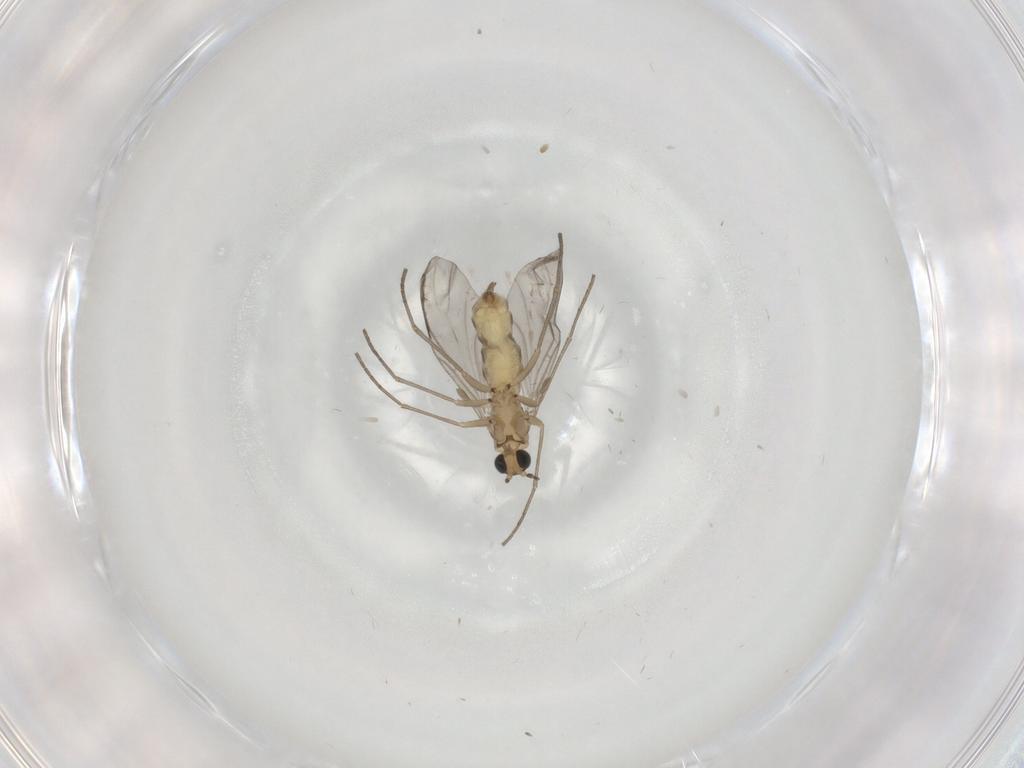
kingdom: Animalia
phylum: Arthropoda
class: Insecta
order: Diptera
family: Sciaridae
